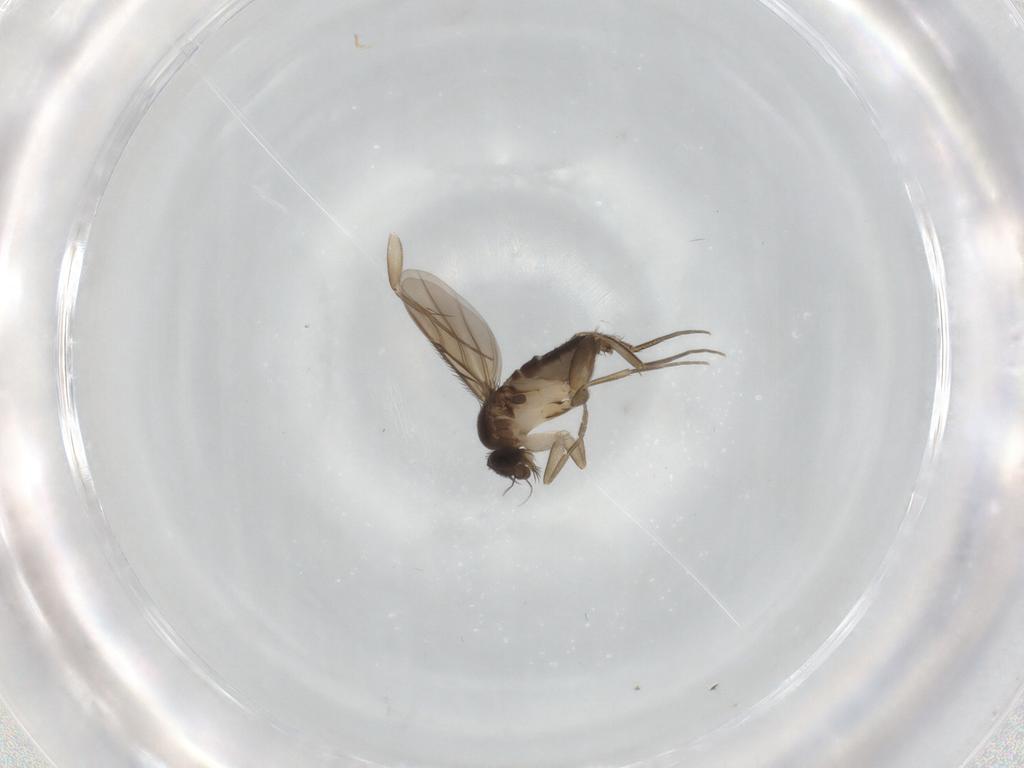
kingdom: Animalia
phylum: Arthropoda
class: Insecta
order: Diptera
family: Phoridae
